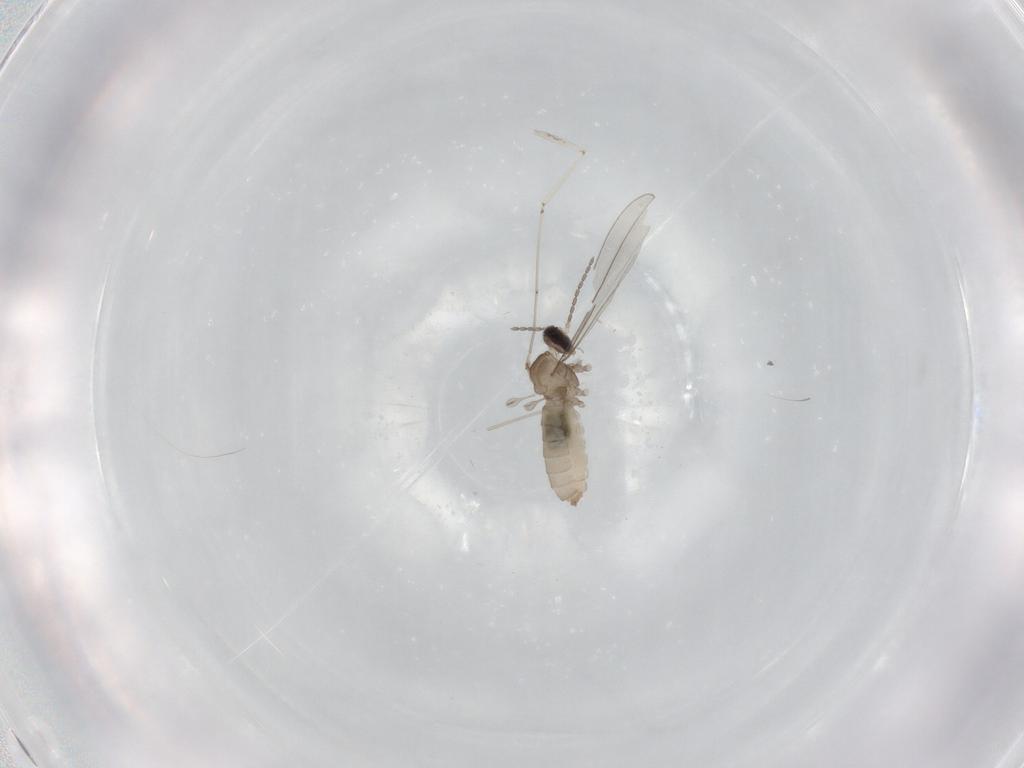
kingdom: Animalia
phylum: Arthropoda
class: Insecta
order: Diptera
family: Cecidomyiidae
